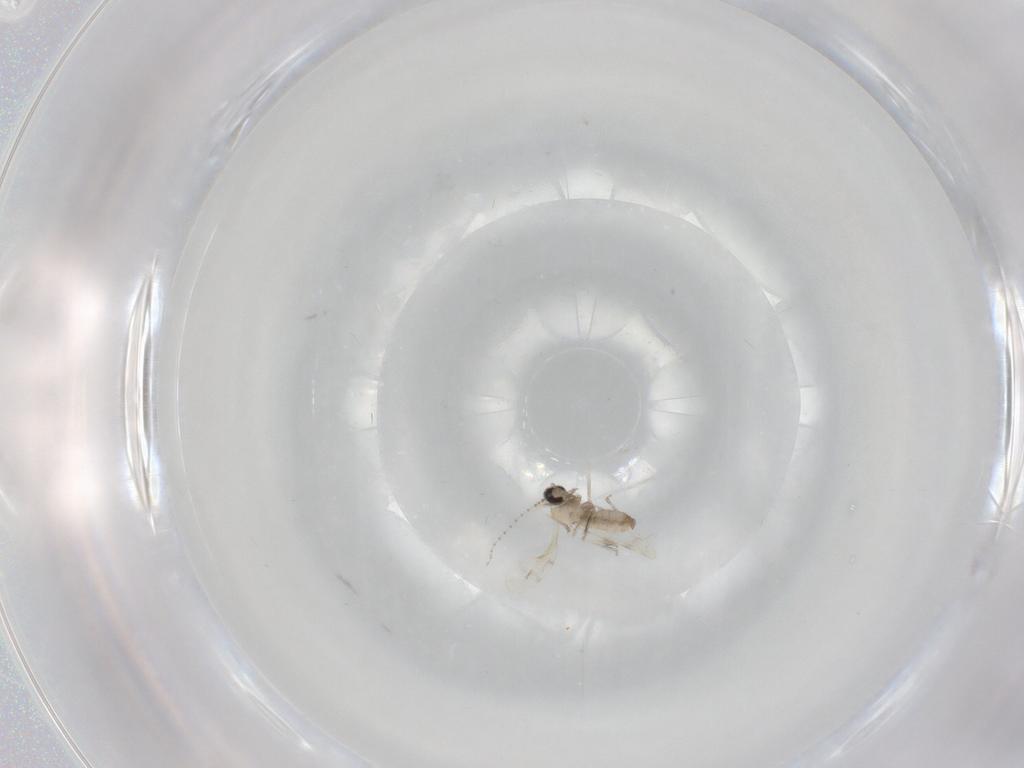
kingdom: Animalia
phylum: Arthropoda
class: Insecta
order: Diptera
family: Cecidomyiidae
